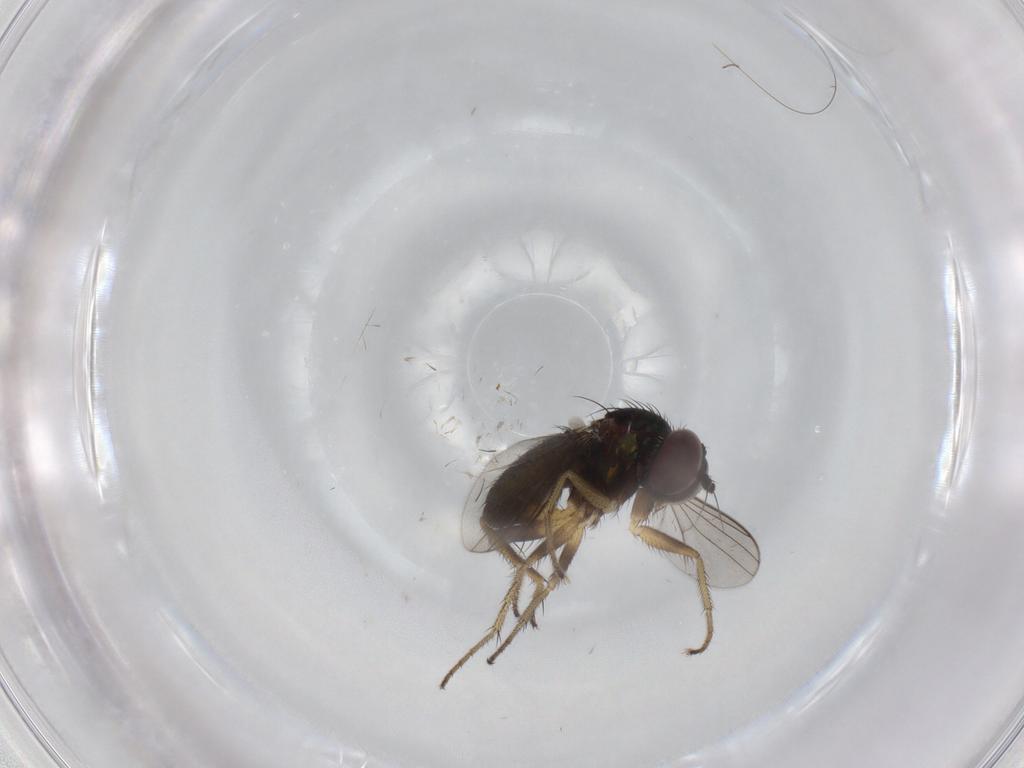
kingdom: Animalia
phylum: Arthropoda
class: Insecta
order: Diptera
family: Dolichopodidae
